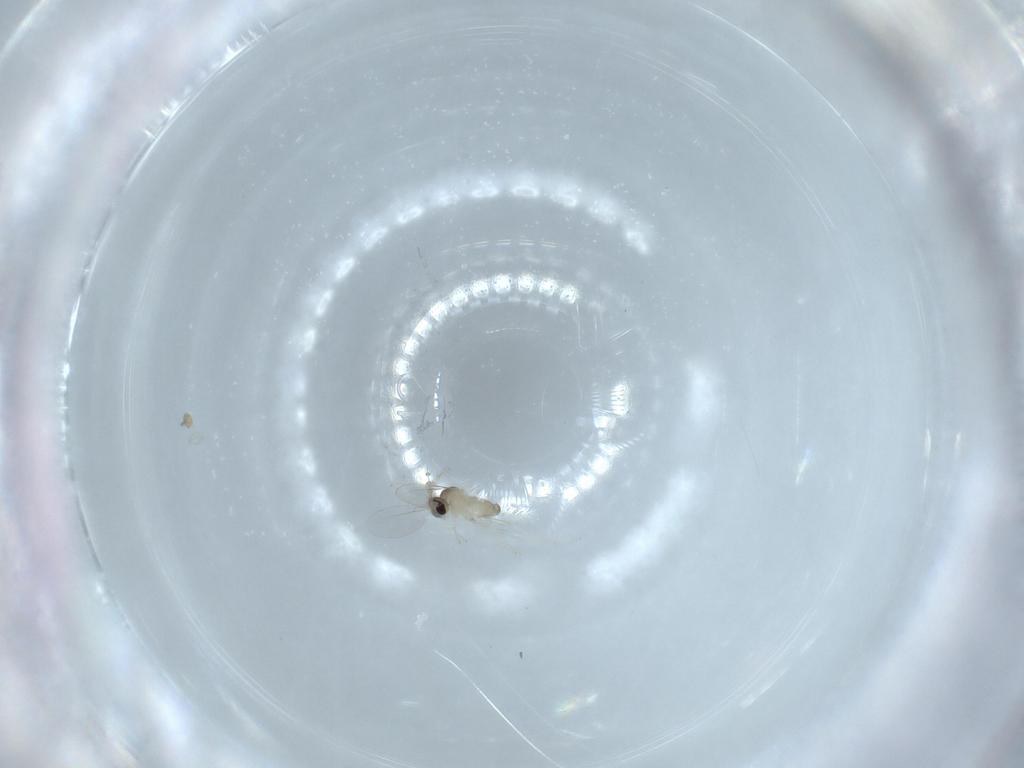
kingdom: Animalia
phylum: Arthropoda
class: Insecta
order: Diptera
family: Cecidomyiidae
